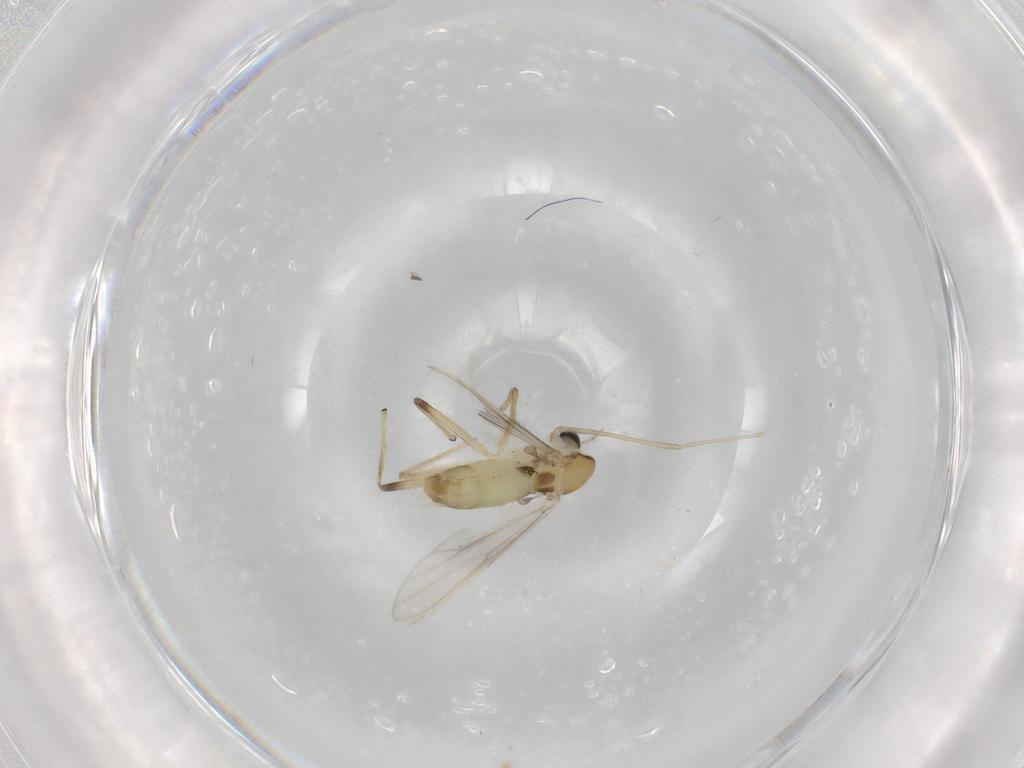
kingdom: Animalia
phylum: Arthropoda
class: Insecta
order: Diptera
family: Chironomidae
